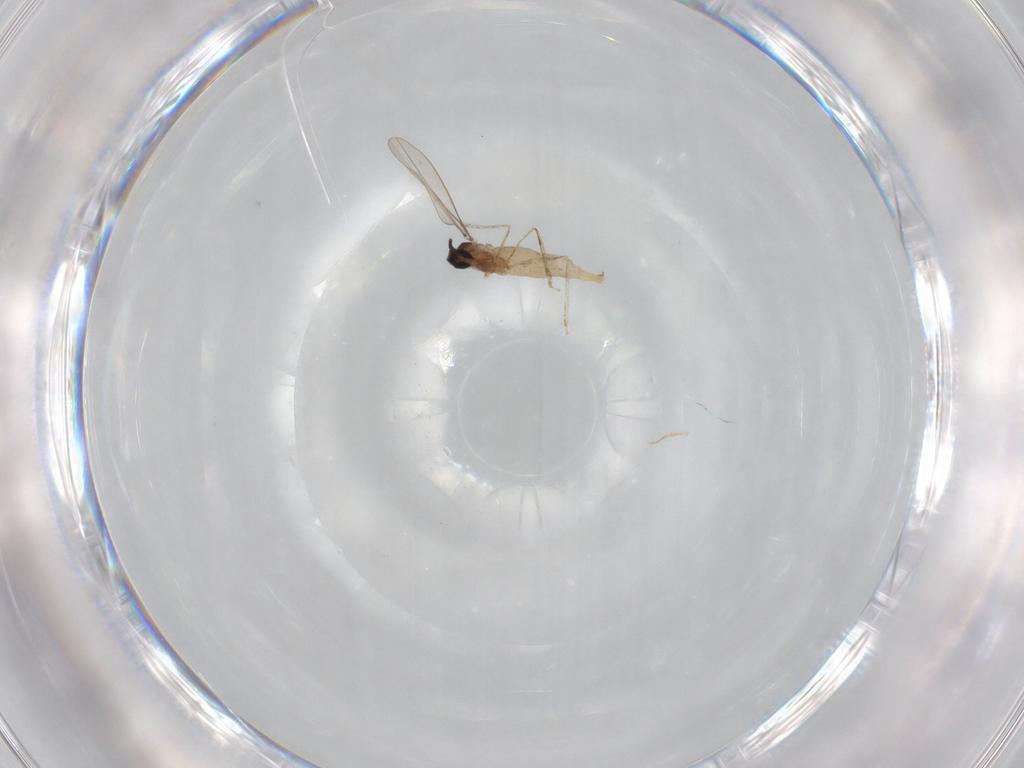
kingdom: Animalia
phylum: Arthropoda
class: Insecta
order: Diptera
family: Cecidomyiidae
